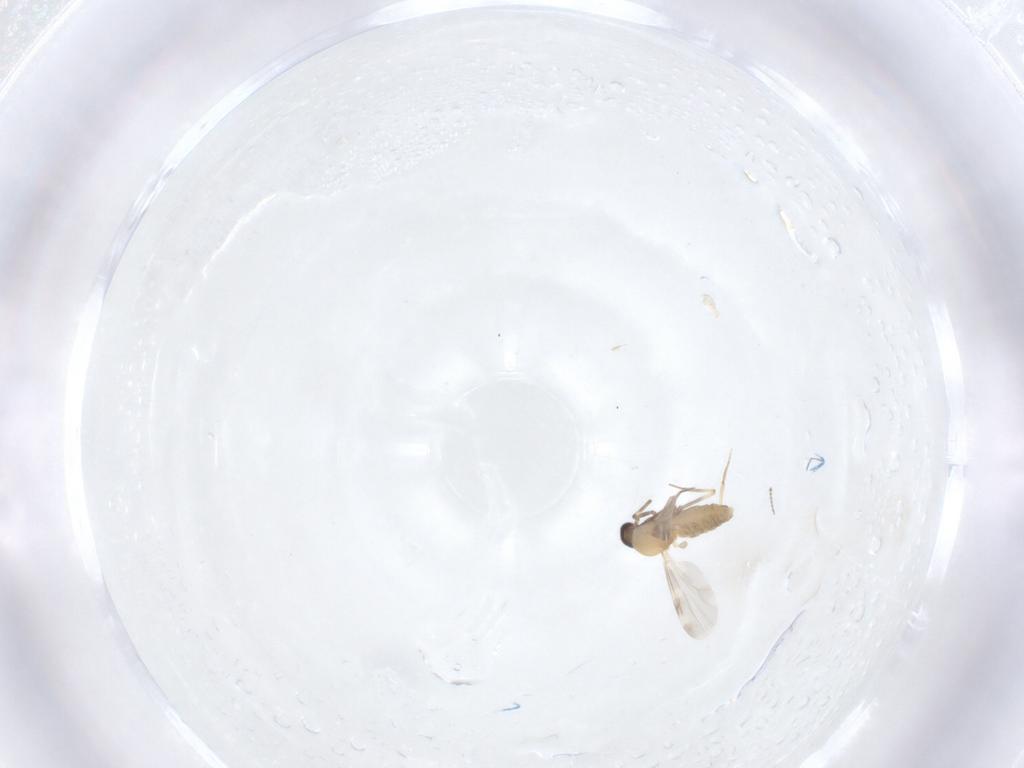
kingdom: Animalia
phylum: Arthropoda
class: Insecta
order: Diptera
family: Ceratopogonidae
